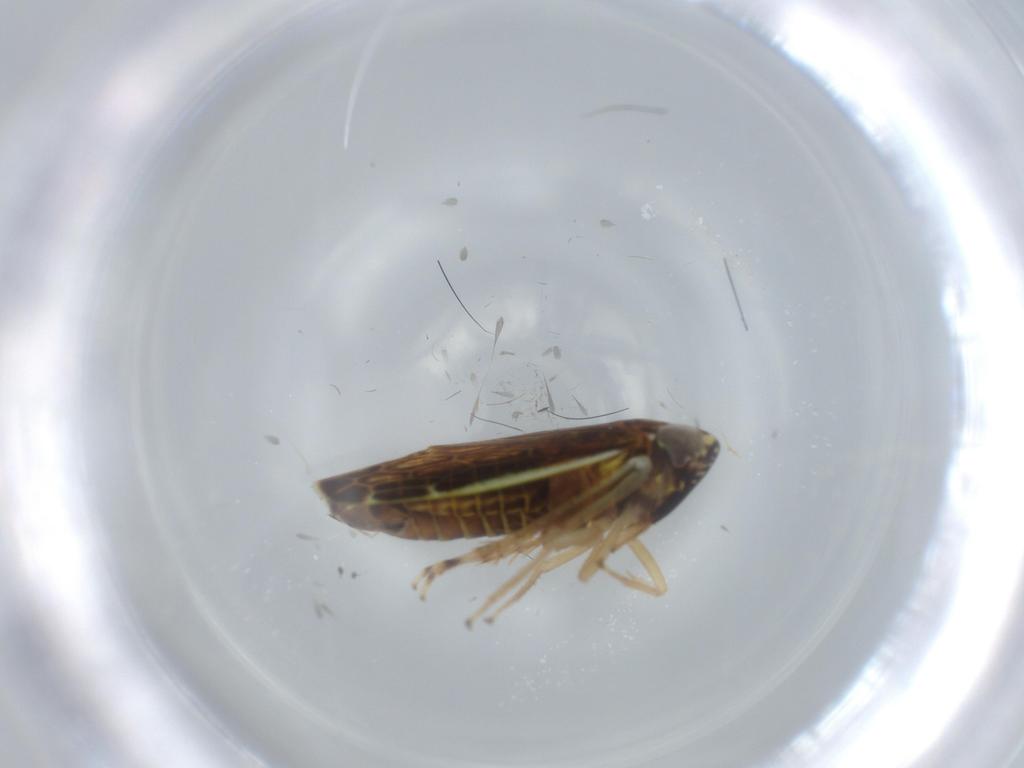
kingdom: Animalia
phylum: Arthropoda
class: Insecta
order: Hemiptera
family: Cicadellidae
